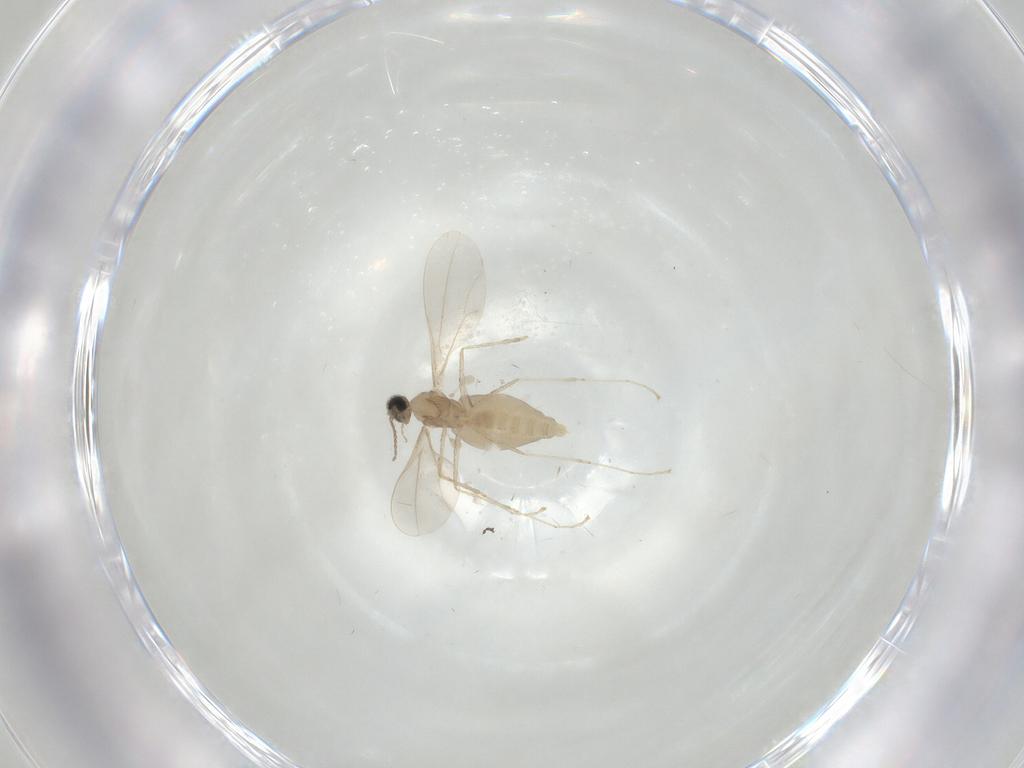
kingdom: Animalia
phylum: Arthropoda
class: Insecta
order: Diptera
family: Cecidomyiidae
